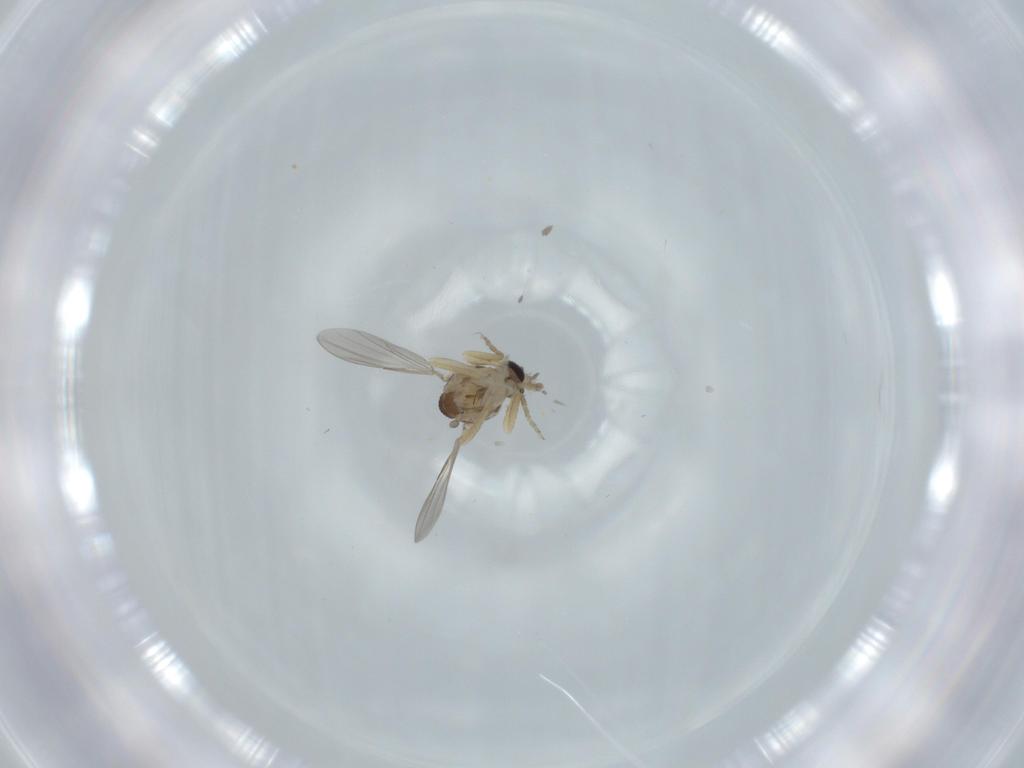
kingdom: Animalia
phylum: Arthropoda
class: Insecta
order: Diptera
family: Ceratopogonidae
